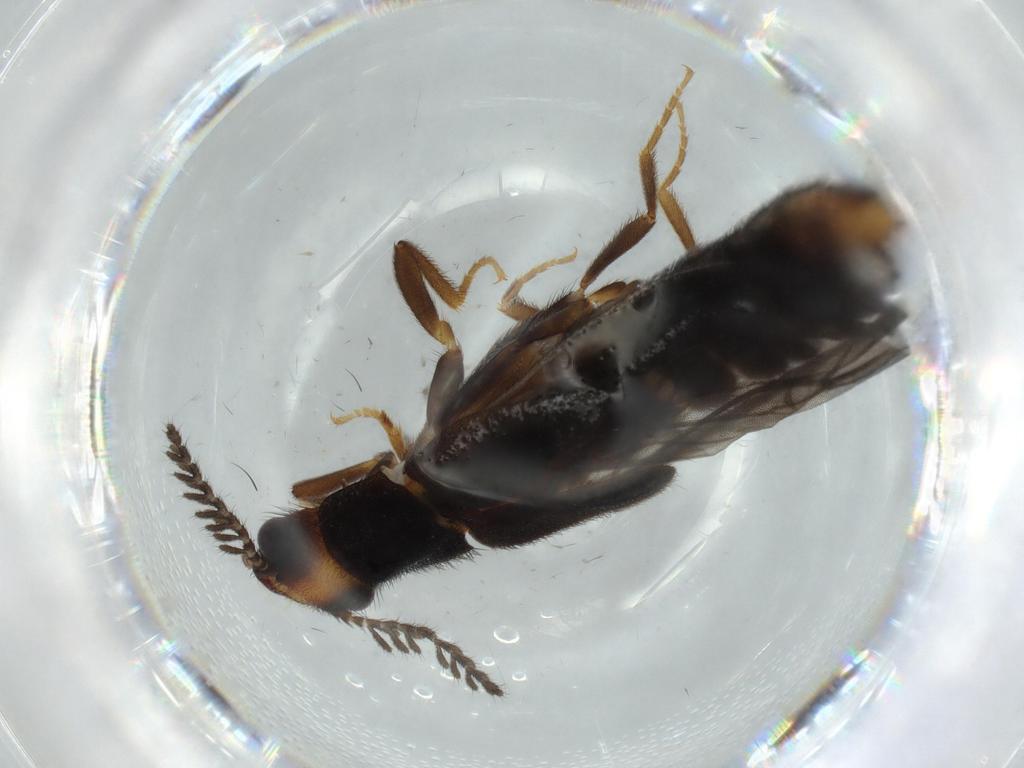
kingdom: Animalia
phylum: Arthropoda
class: Insecta
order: Coleoptera
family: Phengodidae
